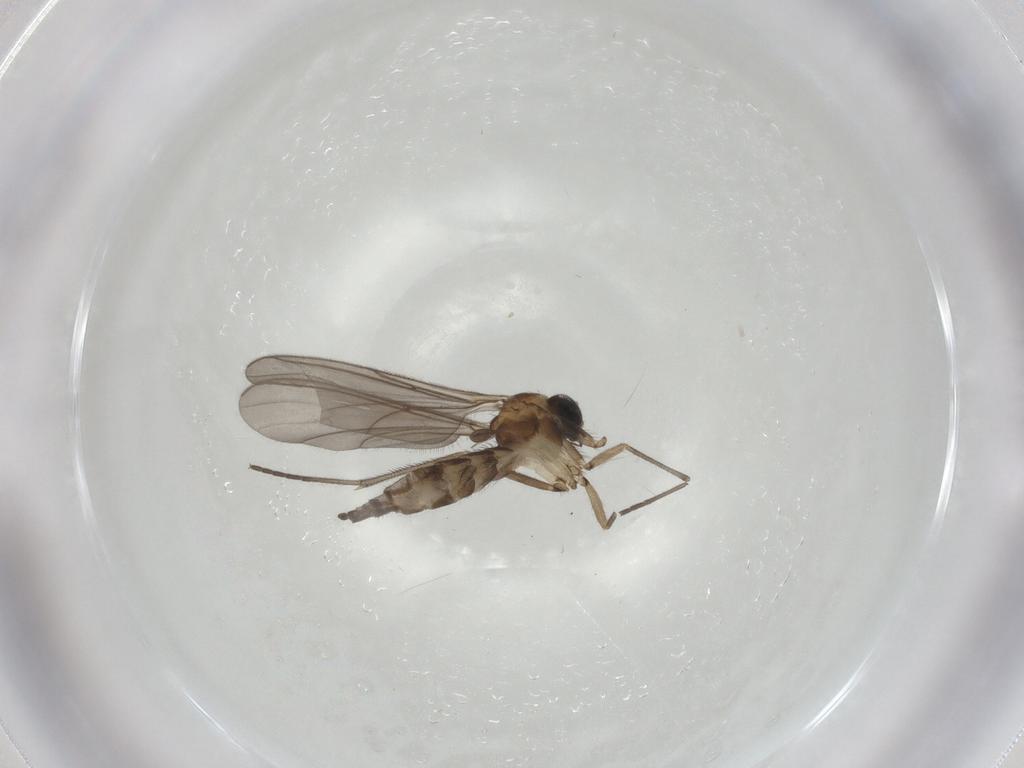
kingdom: Animalia
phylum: Arthropoda
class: Insecta
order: Diptera
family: Sciaridae
